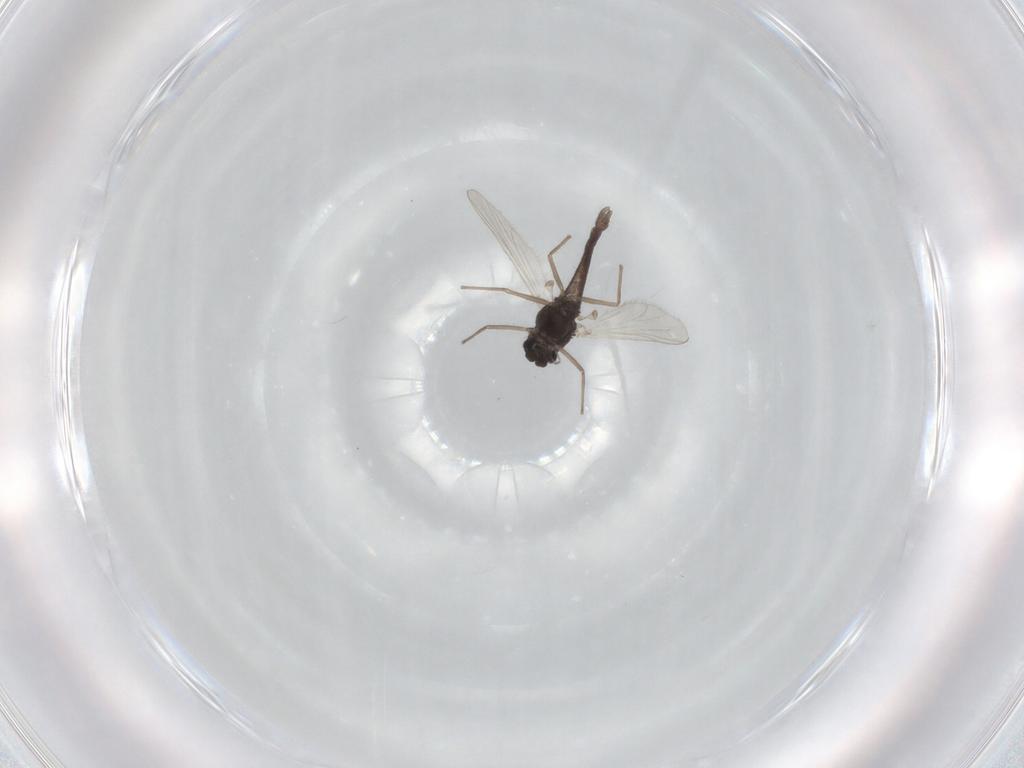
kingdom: Animalia
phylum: Arthropoda
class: Insecta
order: Diptera
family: Chironomidae
